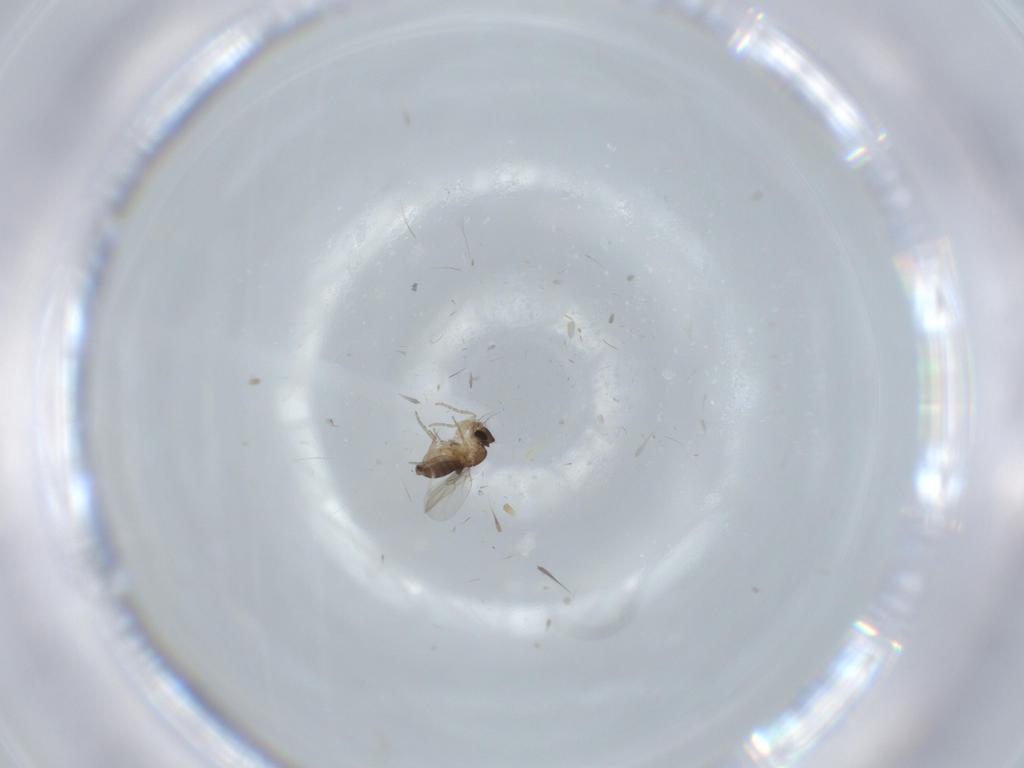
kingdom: Animalia
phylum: Arthropoda
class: Insecta
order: Diptera
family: Phoridae
